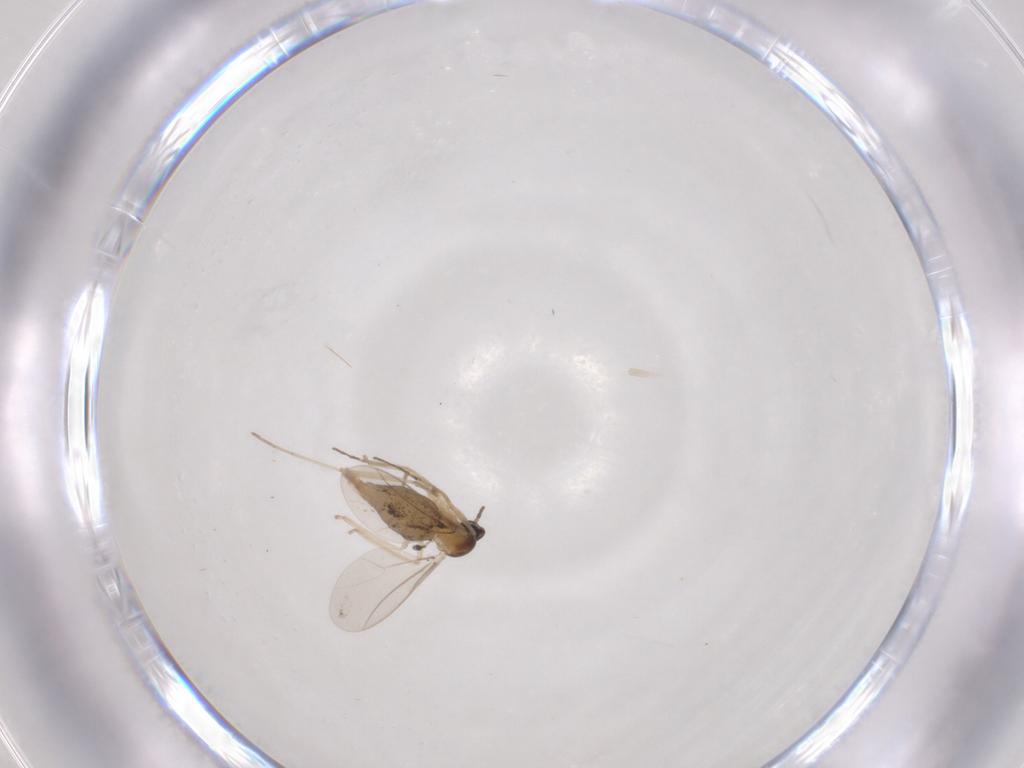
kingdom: Animalia
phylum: Arthropoda
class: Insecta
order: Diptera
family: Cecidomyiidae
